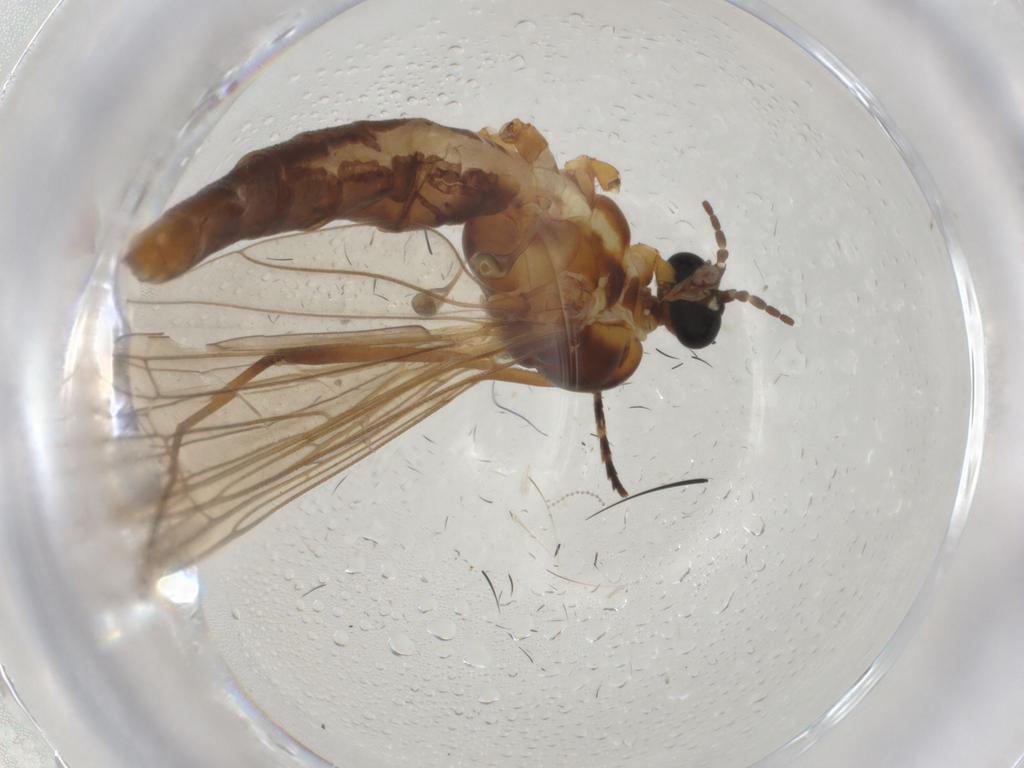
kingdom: Animalia
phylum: Arthropoda
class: Insecta
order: Diptera
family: Cecidomyiidae
